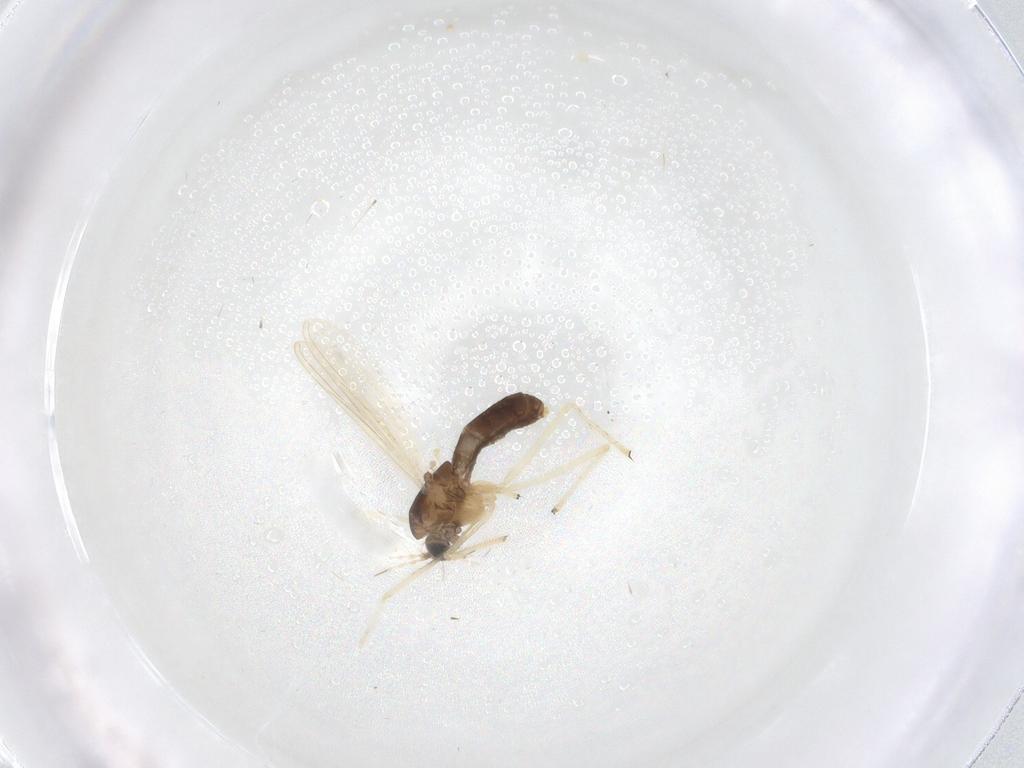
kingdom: Animalia
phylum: Arthropoda
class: Insecta
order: Diptera
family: Chironomidae
